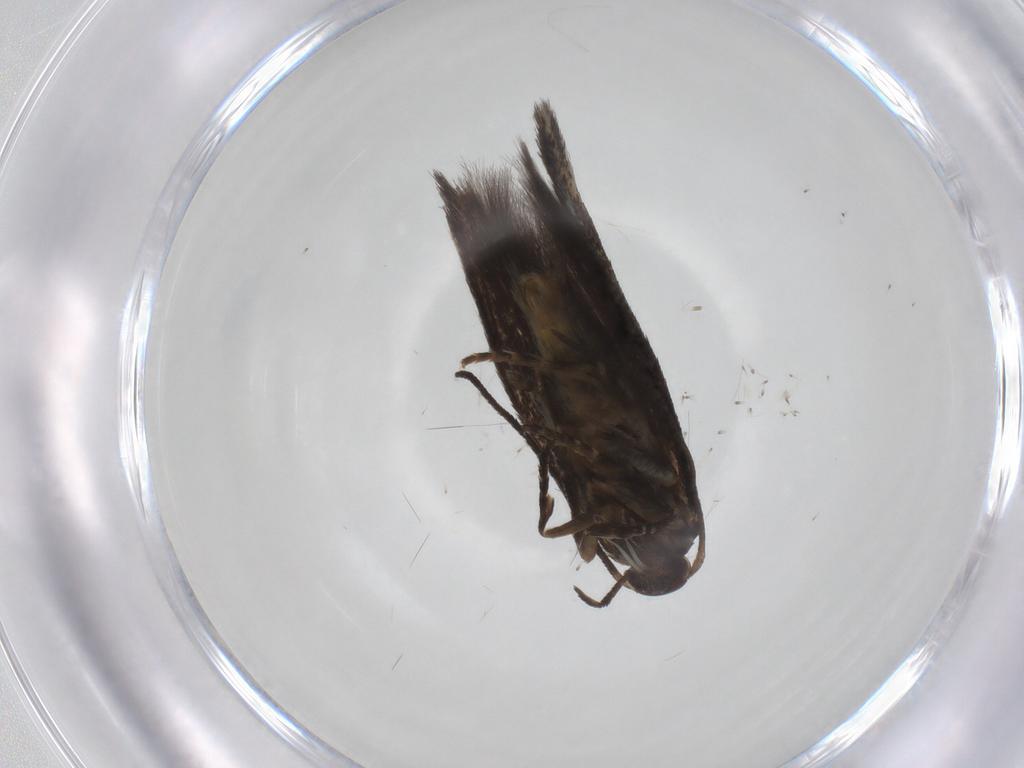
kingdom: Animalia
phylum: Arthropoda
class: Insecta
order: Lepidoptera
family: Elachistidae
